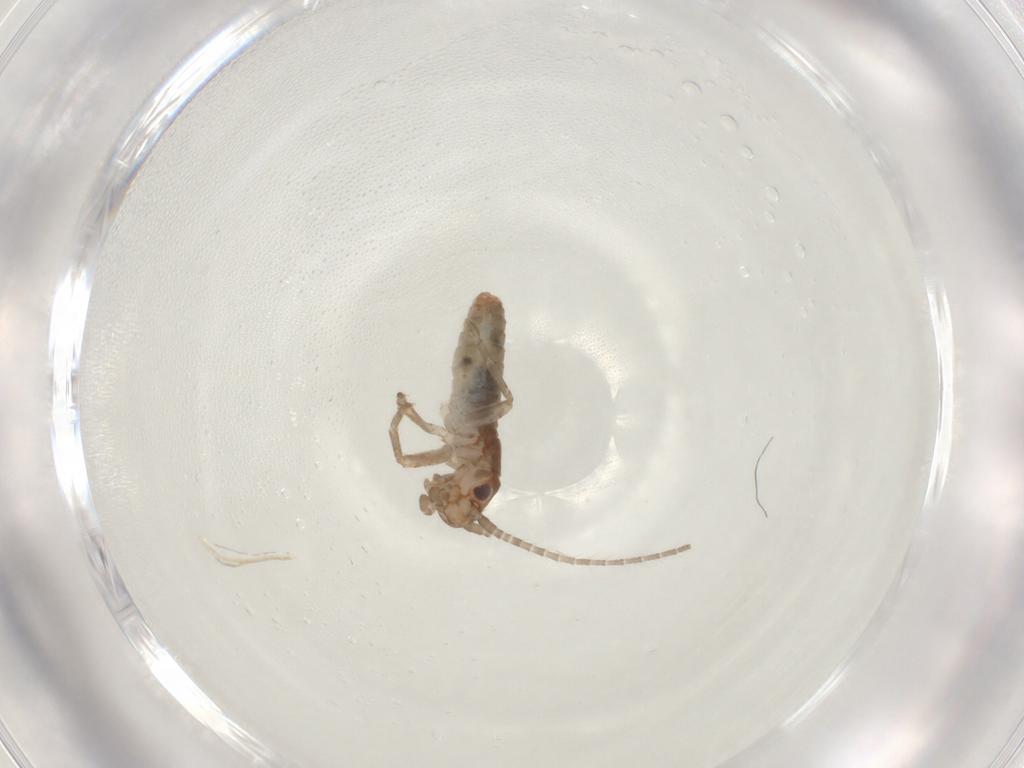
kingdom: Animalia
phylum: Arthropoda
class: Insecta
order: Orthoptera
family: Mogoplistidae
